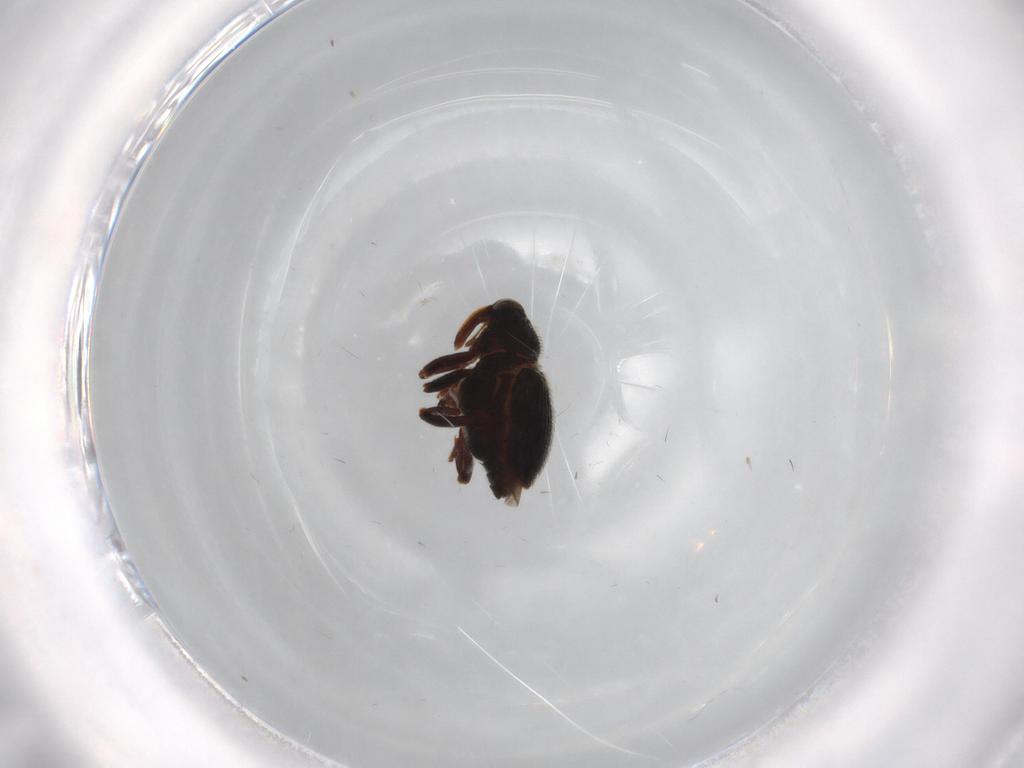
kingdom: Animalia
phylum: Arthropoda
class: Insecta
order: Coleoptera
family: Curculionidae
